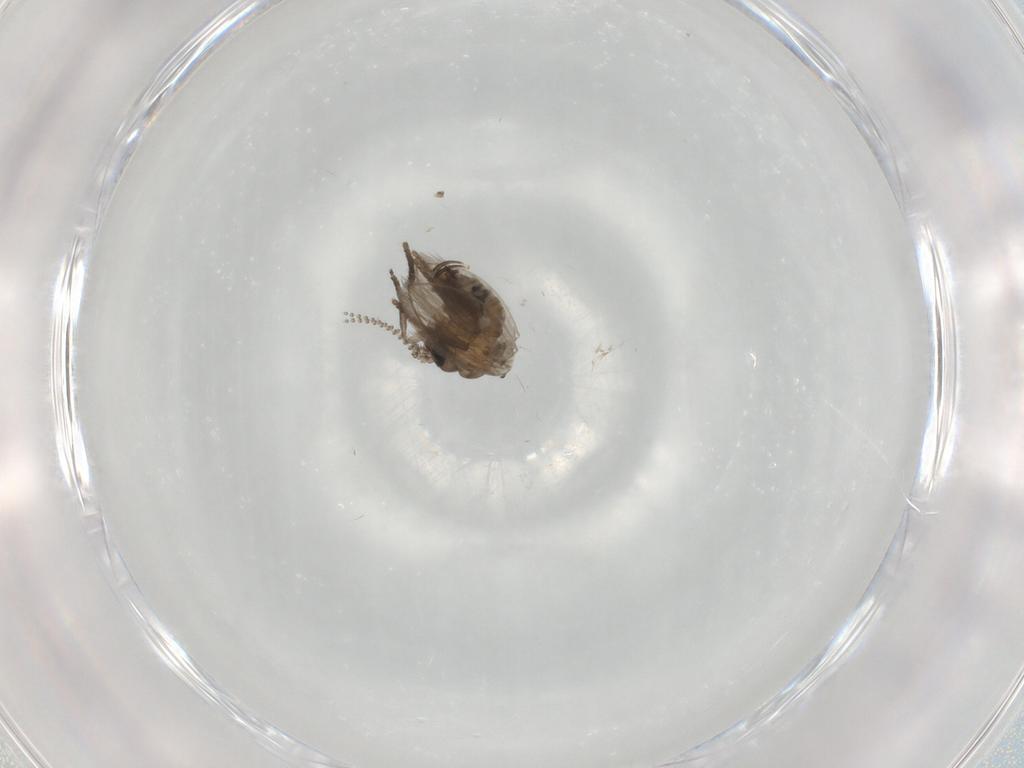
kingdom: Animalia
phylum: Arthropoda
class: Insecta
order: Diptera
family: Psychodidae
